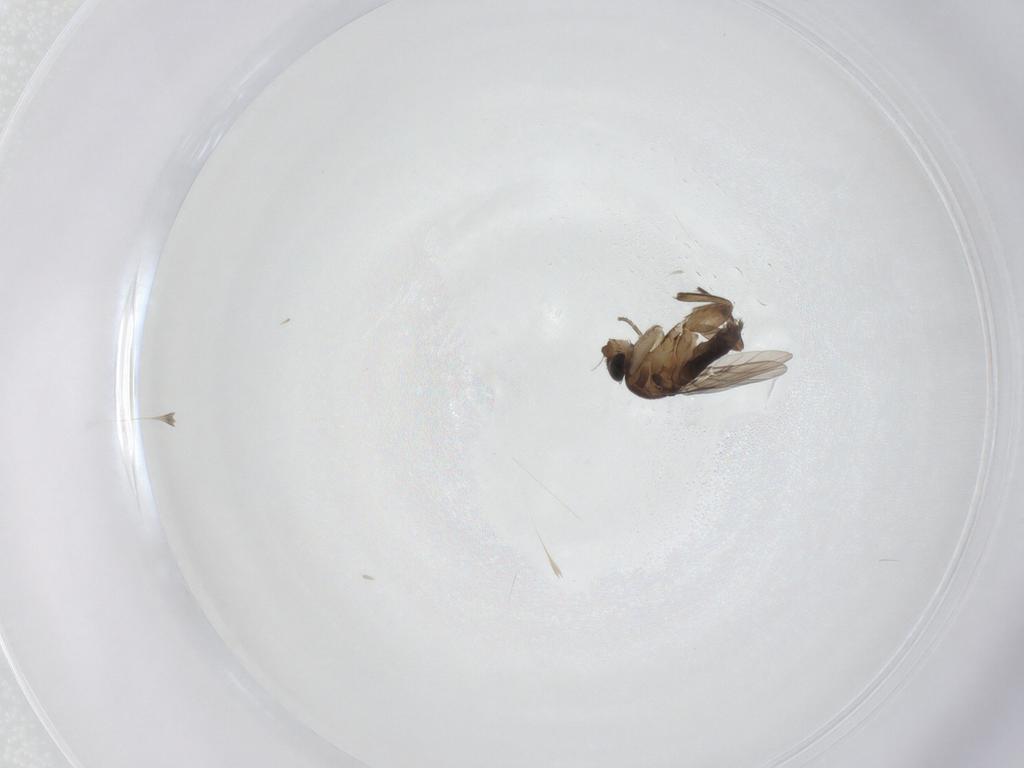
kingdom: Animalia
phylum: Arthropoda
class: Insecta
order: Diptera
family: Phoridae
